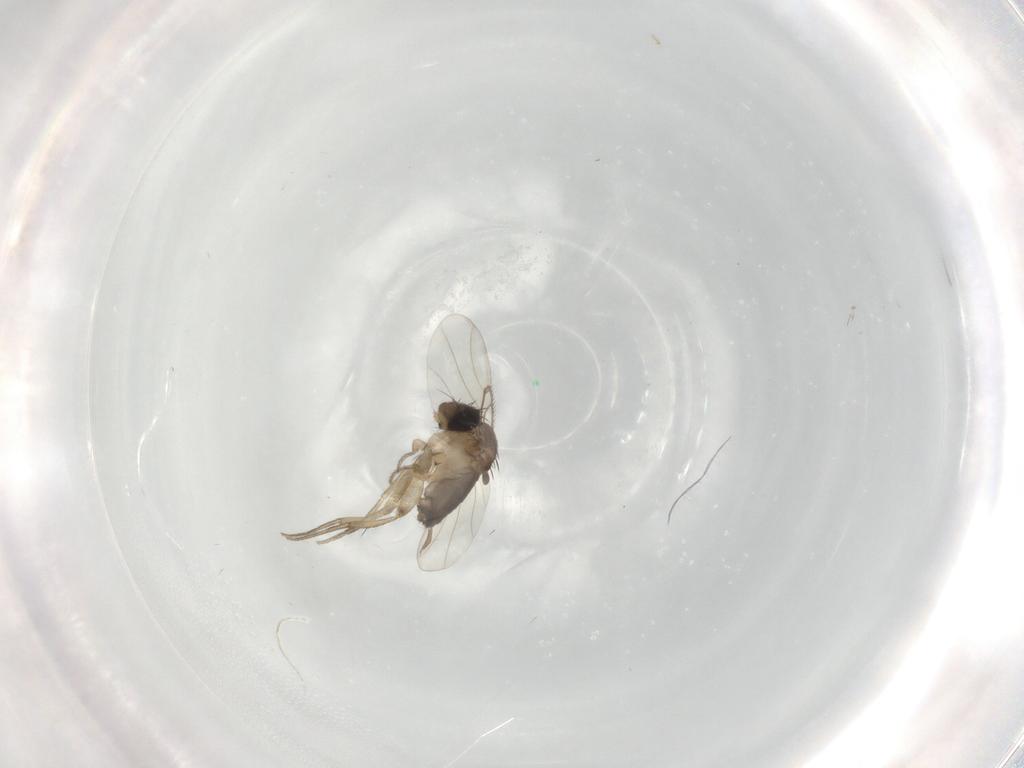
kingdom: Animalia
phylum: Arthropoda
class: Insecta
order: Diptera
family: Phoridae
